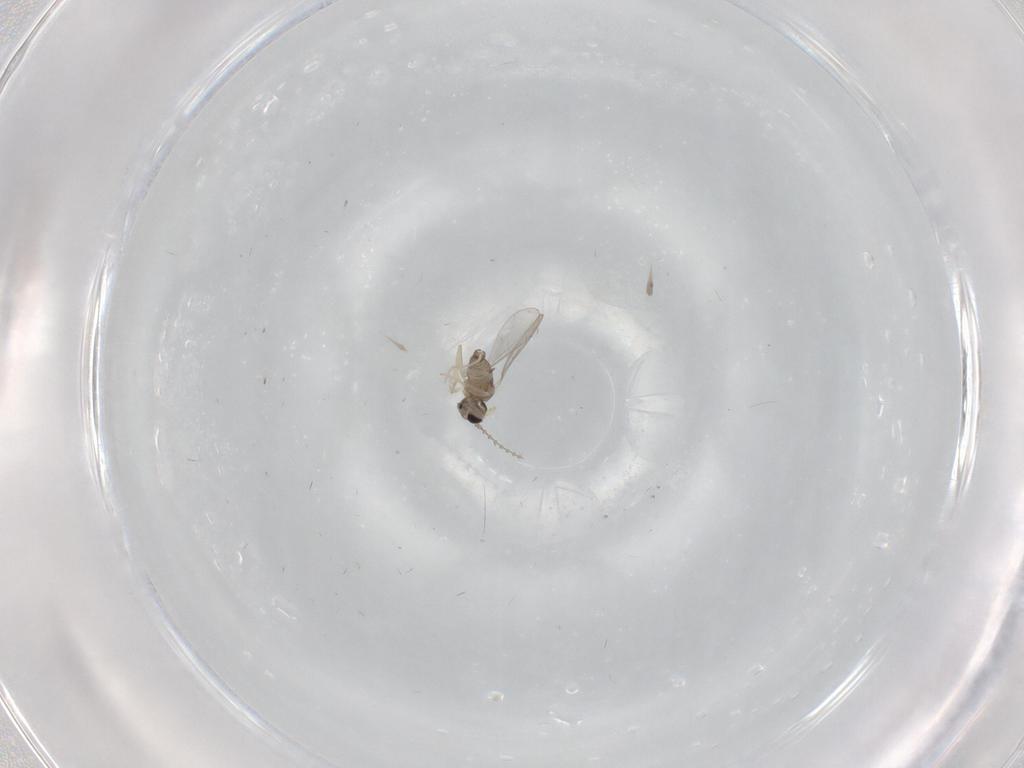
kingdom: Animalia
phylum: Arthropoda
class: Insecta
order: Diptera
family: Cecidomyiidae
